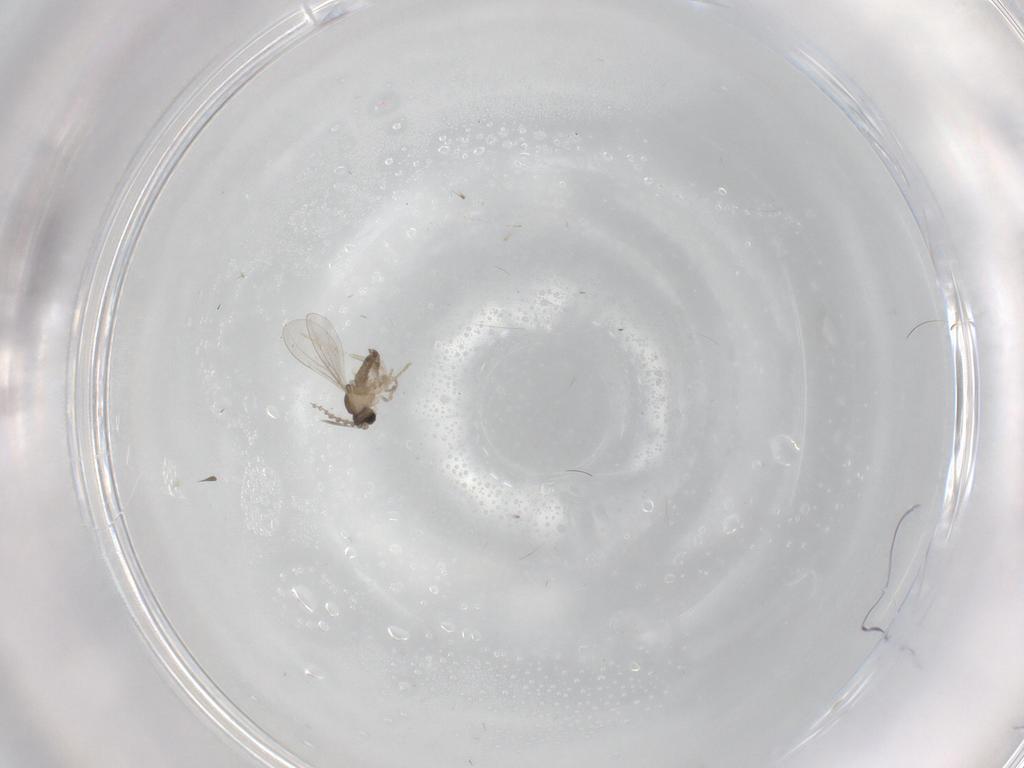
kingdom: Animalia
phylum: Arthropoda
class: Insecta
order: Diptera
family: Cecidomyiidae
